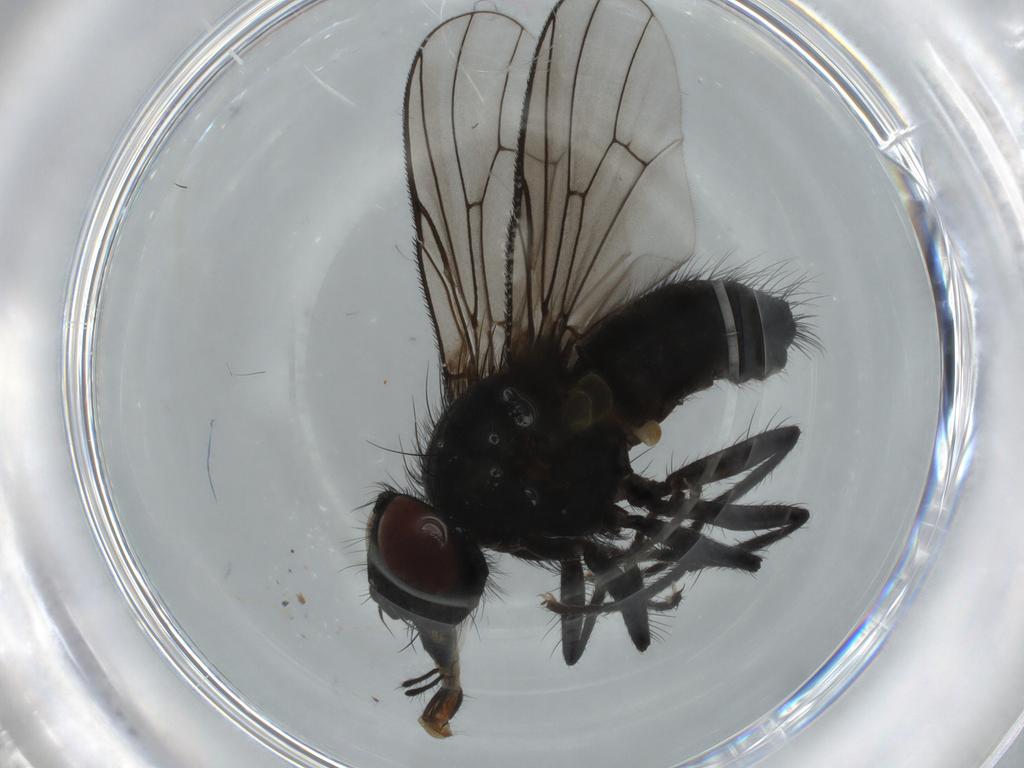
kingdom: Animalia
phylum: Arthropoda
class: Insecta
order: Diptera
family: Muscidae
